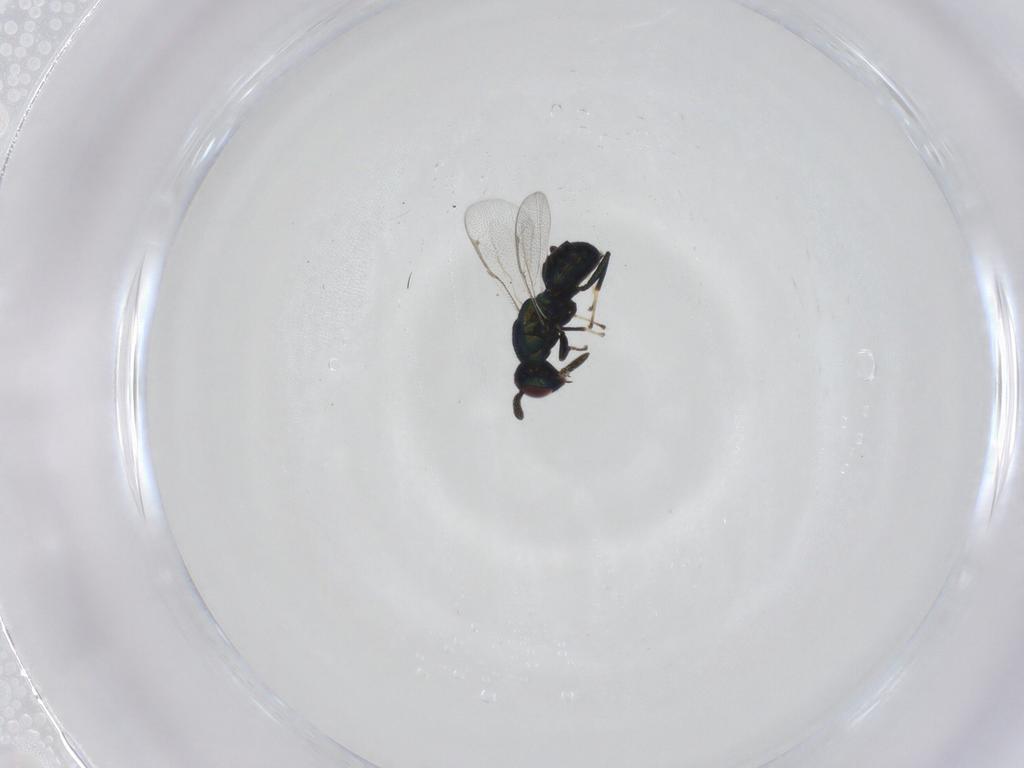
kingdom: Animalia
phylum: Arthropoda
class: Insecta
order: Hymenoptera
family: Torymidae
